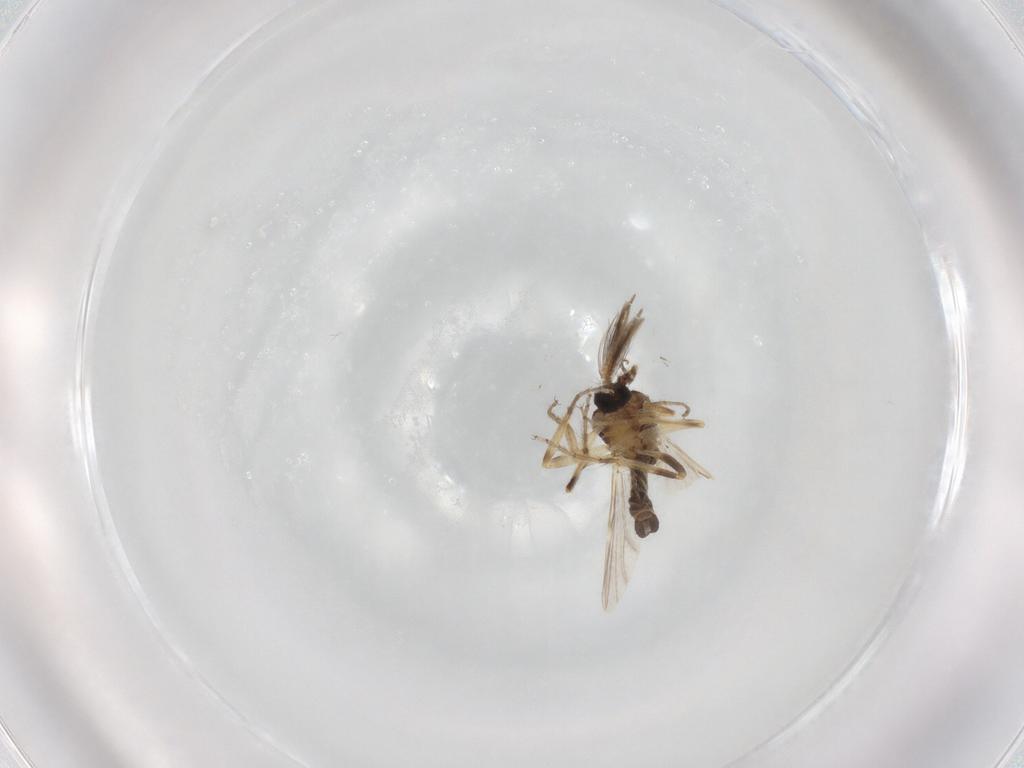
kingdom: Animalia
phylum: Arthropoda
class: Insecta
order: Diptera
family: Ceratopogonidae
